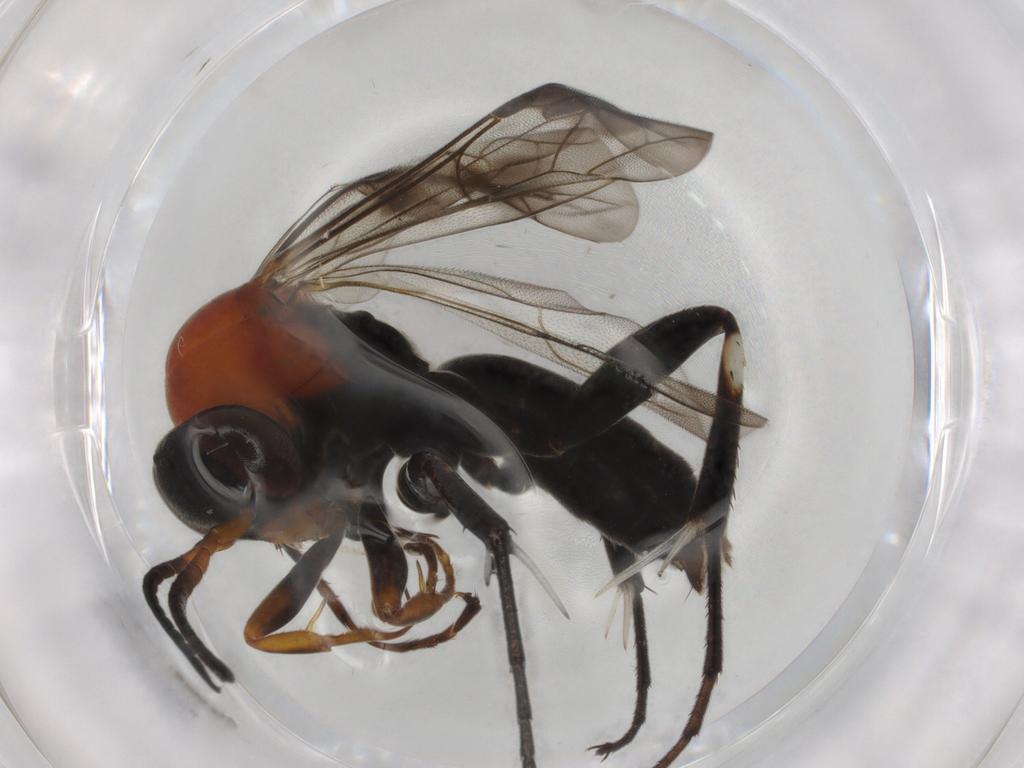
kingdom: Animalia
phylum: Arthropoda
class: Insecta
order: Hymenoptera
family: Pompilidae
